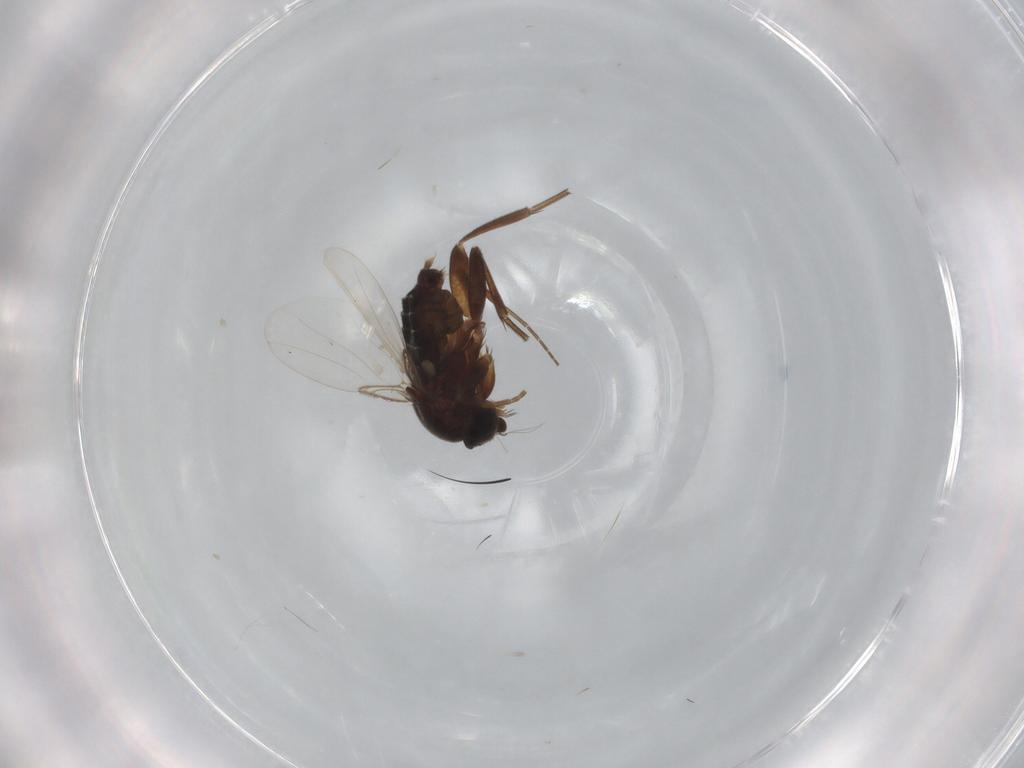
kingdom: Animalia
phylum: Arthropoda
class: Insecta
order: Diptera
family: Phoridae
